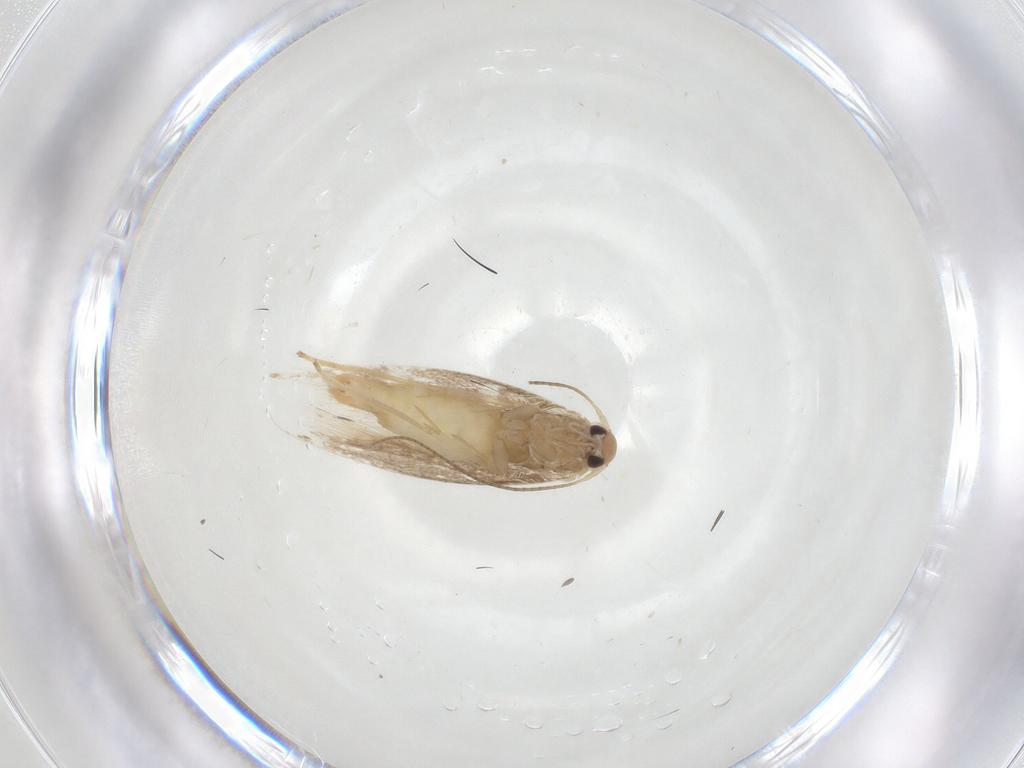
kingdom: Animalia
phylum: Arthropoda
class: Insecta
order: Lepidoptera
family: Gracillariidae
